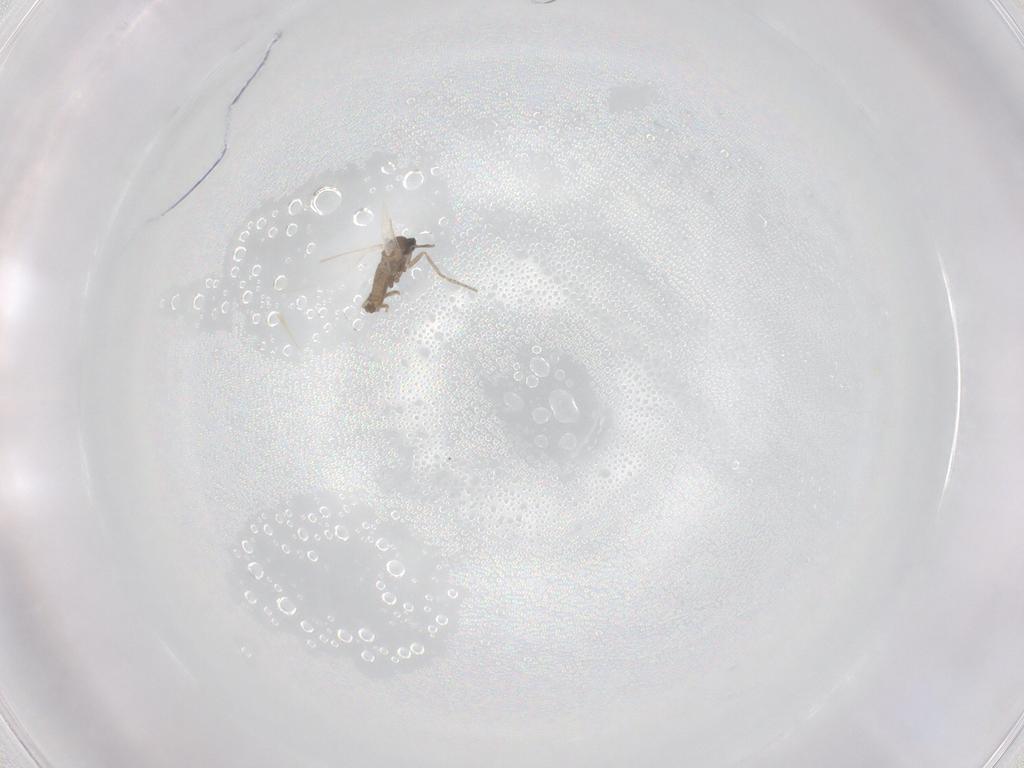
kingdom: Animalia
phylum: Arthropoda
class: Insecta
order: Diptera
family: Cecidomyiidae
